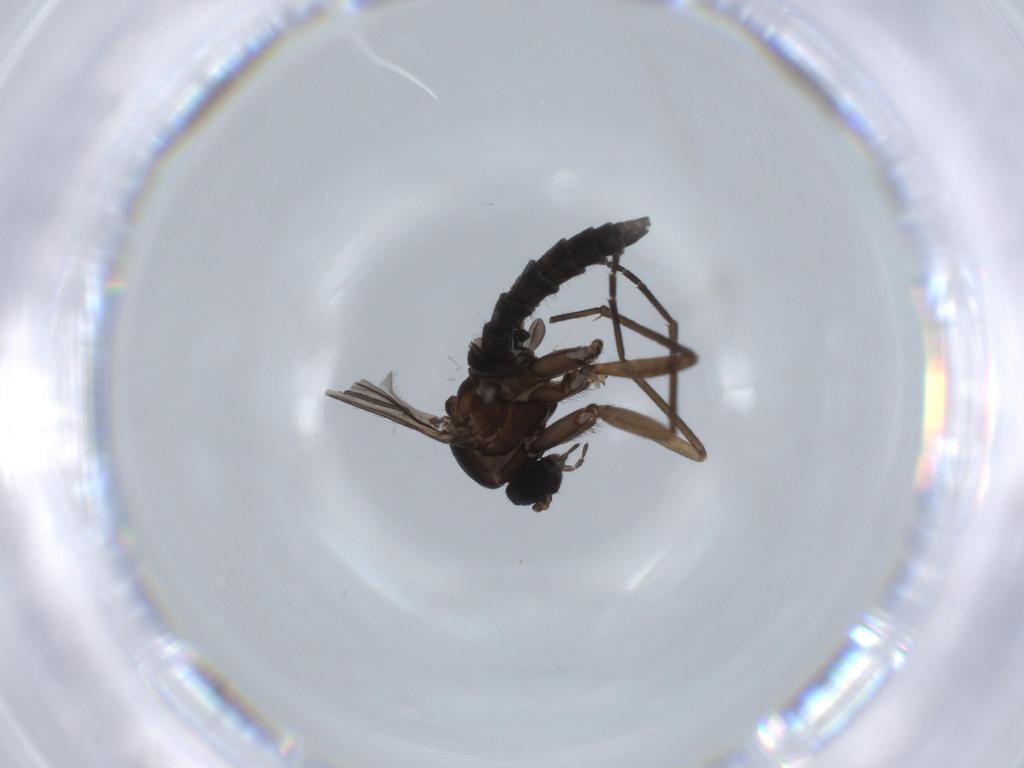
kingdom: Animalia
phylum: Arthropoda
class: Insecta
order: Diptera
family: Sciaridae
